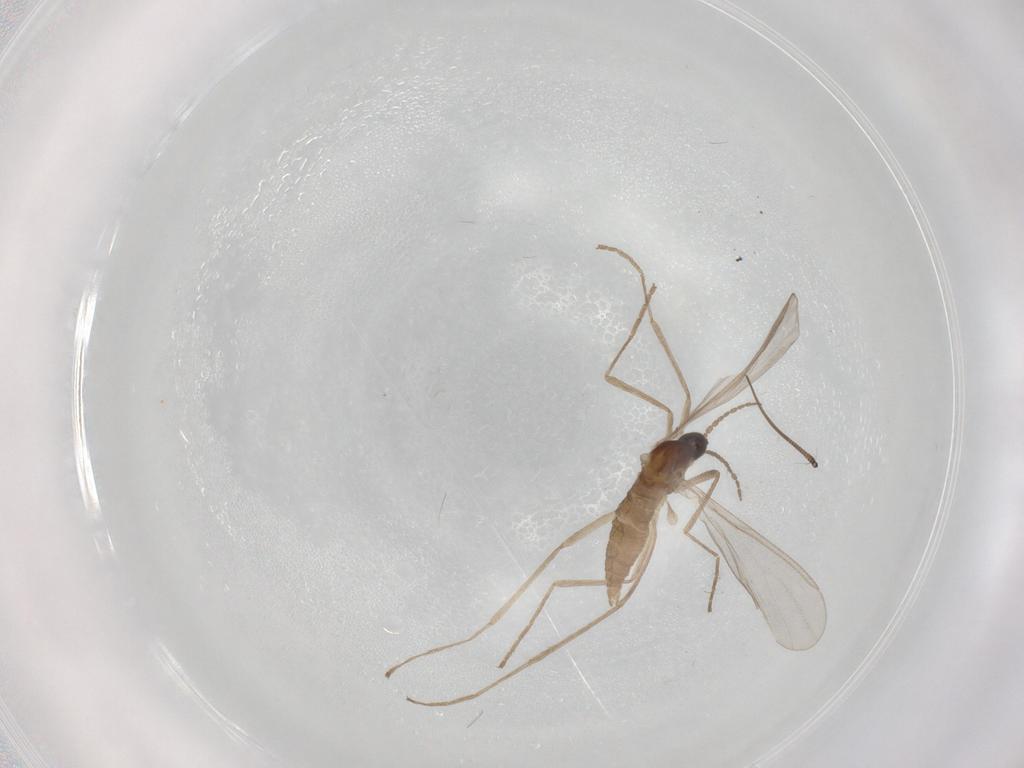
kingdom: Animalia
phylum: Arthropoda
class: Insecta
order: Diptera
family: Cecidomyiidae
